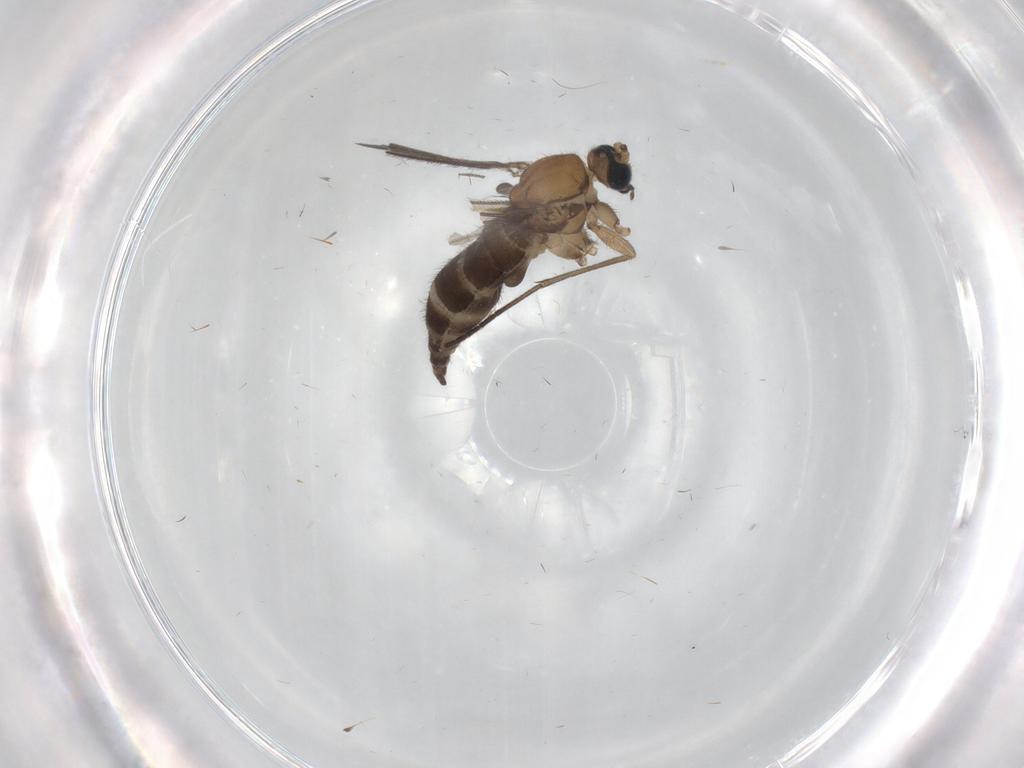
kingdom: Animalia
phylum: Arthropoda
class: Insecta
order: Diptera
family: Sciaridae
